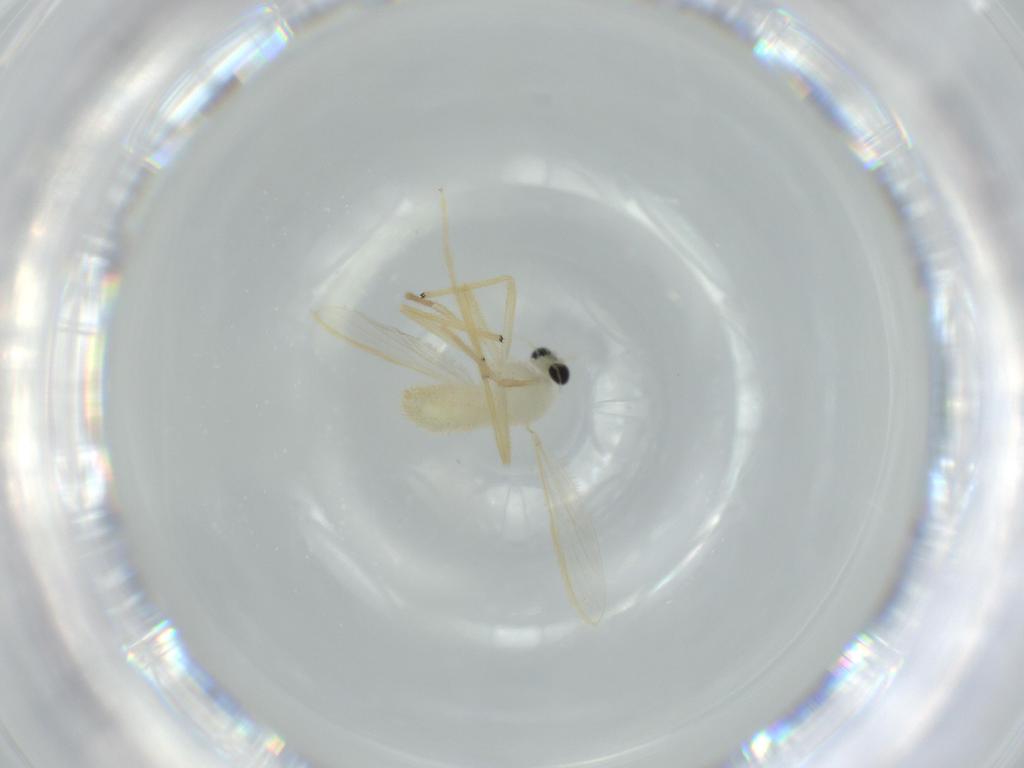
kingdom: Animalia
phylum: Arthropoda
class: Insecta
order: Diptera
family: Chironomidae
